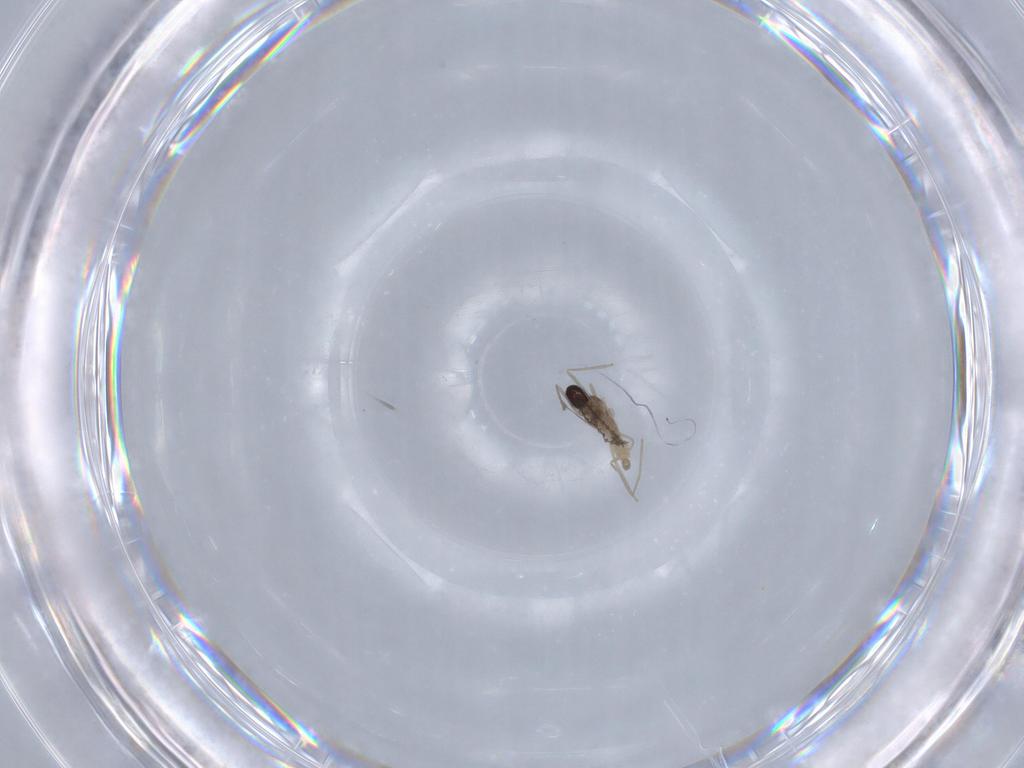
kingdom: Animalia
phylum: Arthropoda
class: Insecta
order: Diptera
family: Cecidomyiidae
